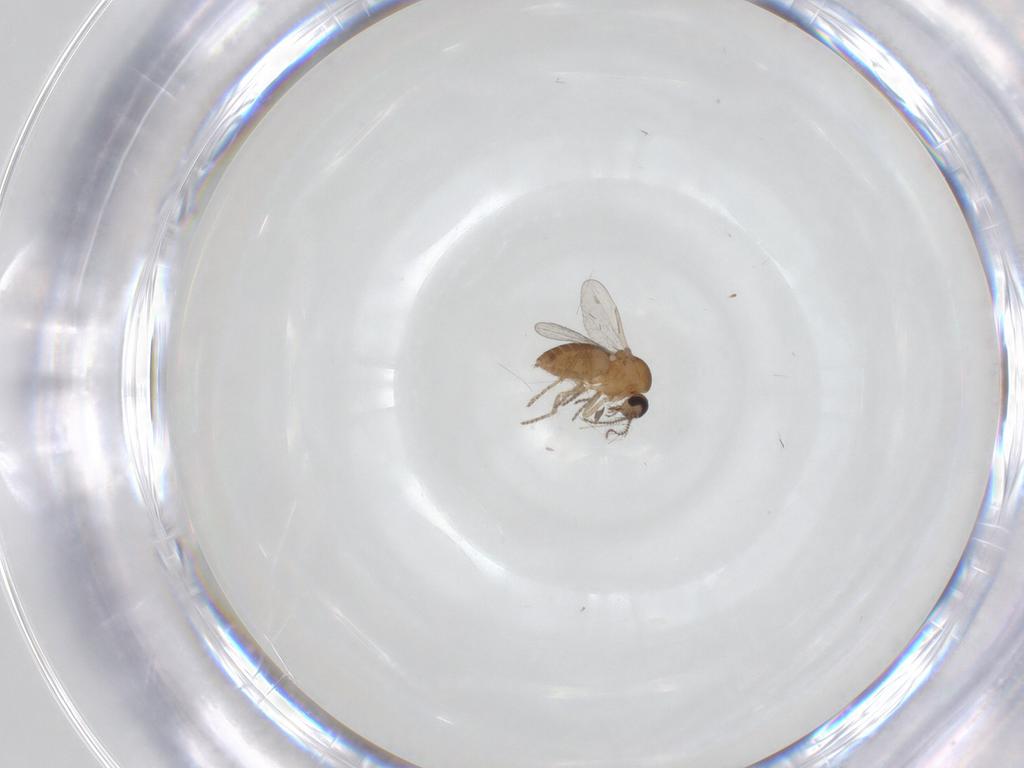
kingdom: Animalia
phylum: Arthropoda
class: Insecta
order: Diptera
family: Ceratopogonidae
